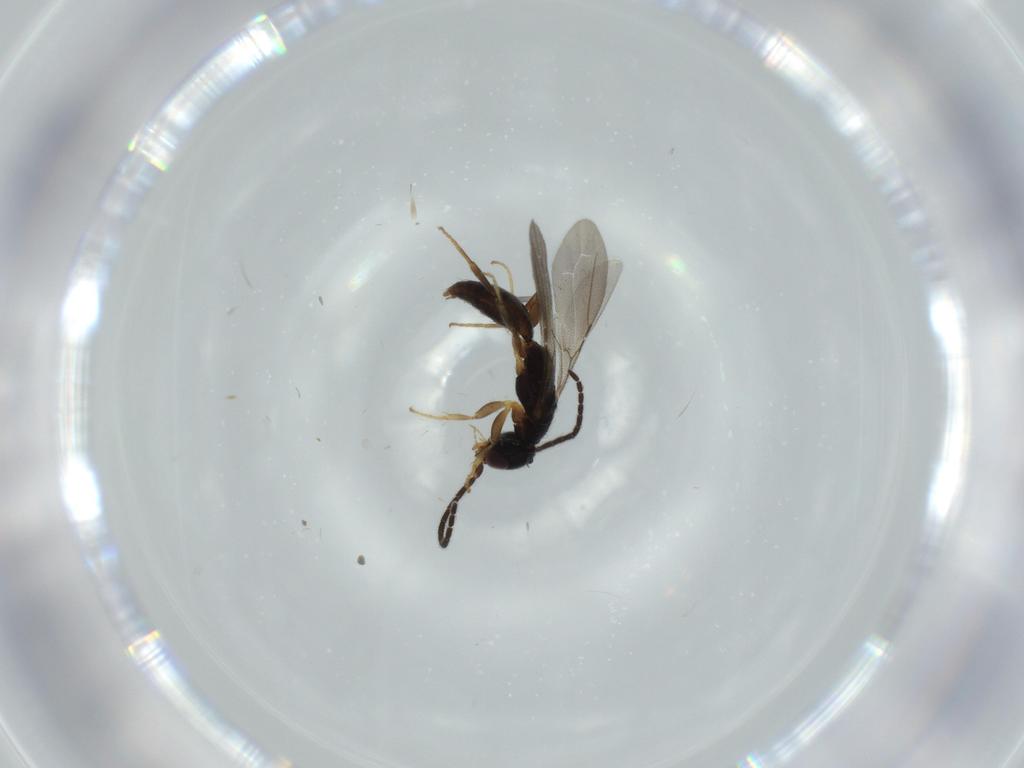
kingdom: Animalia
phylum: Arthropoda
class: Insecta
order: Hymenoptera
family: Bethylidae
